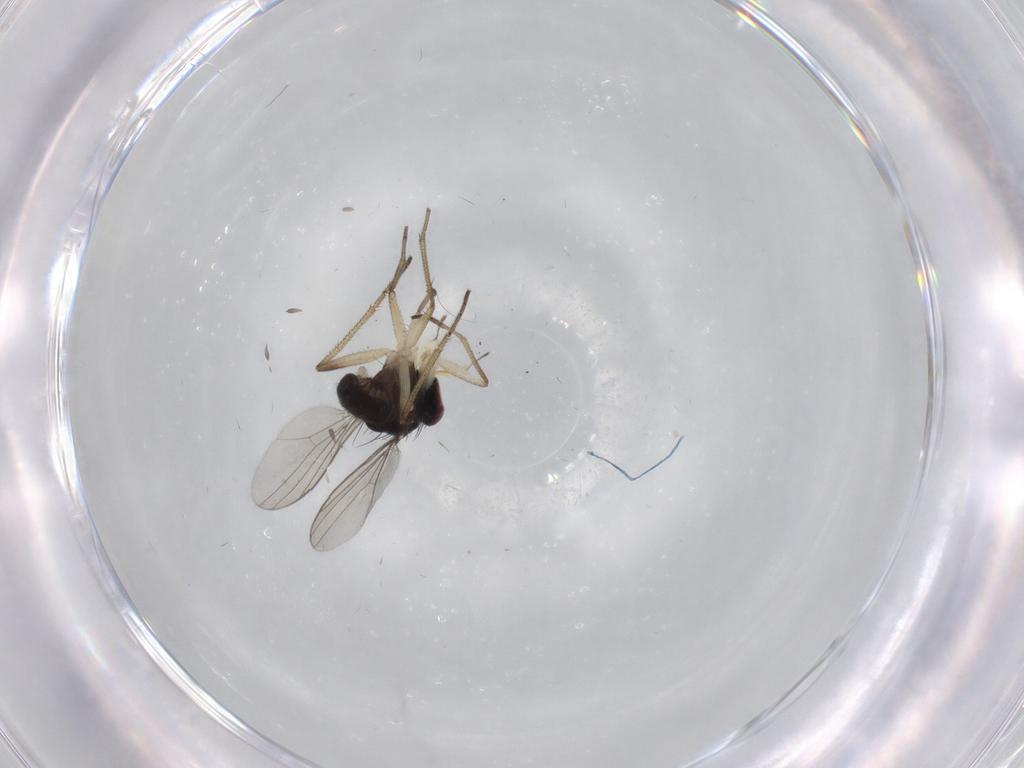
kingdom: Animalia
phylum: Arthropoda
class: Insecta
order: Diptera
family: Dolichopodidae
